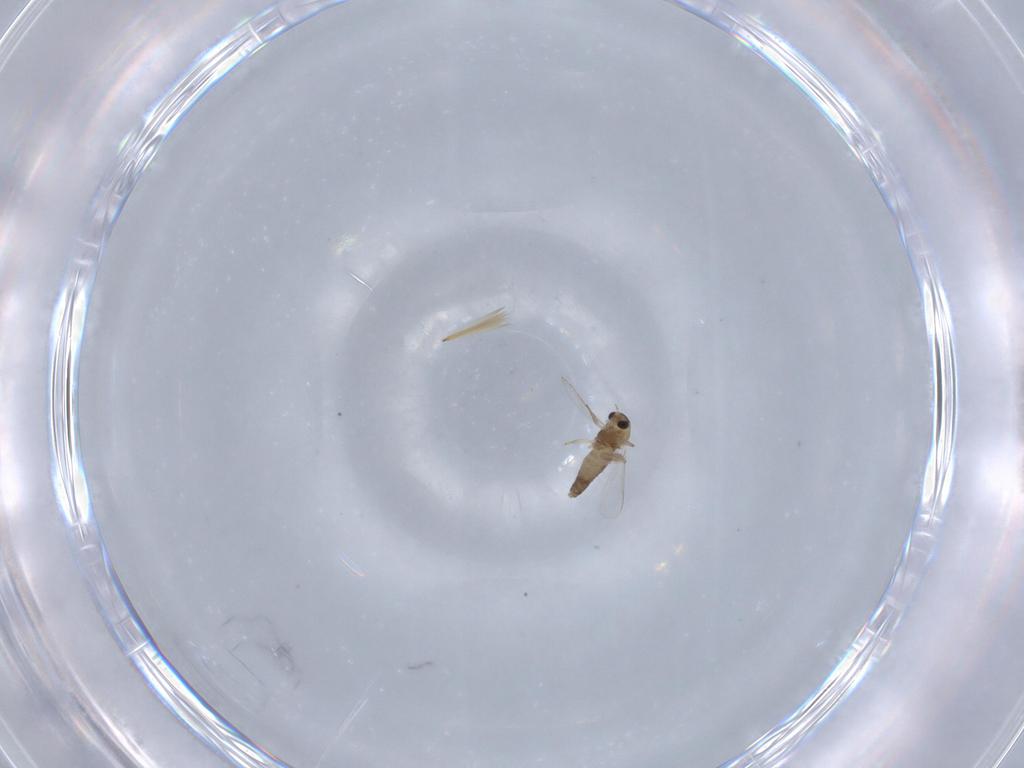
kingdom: Animalia
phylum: Arthropoda
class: Insecta
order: Diptera
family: Chironomidae
